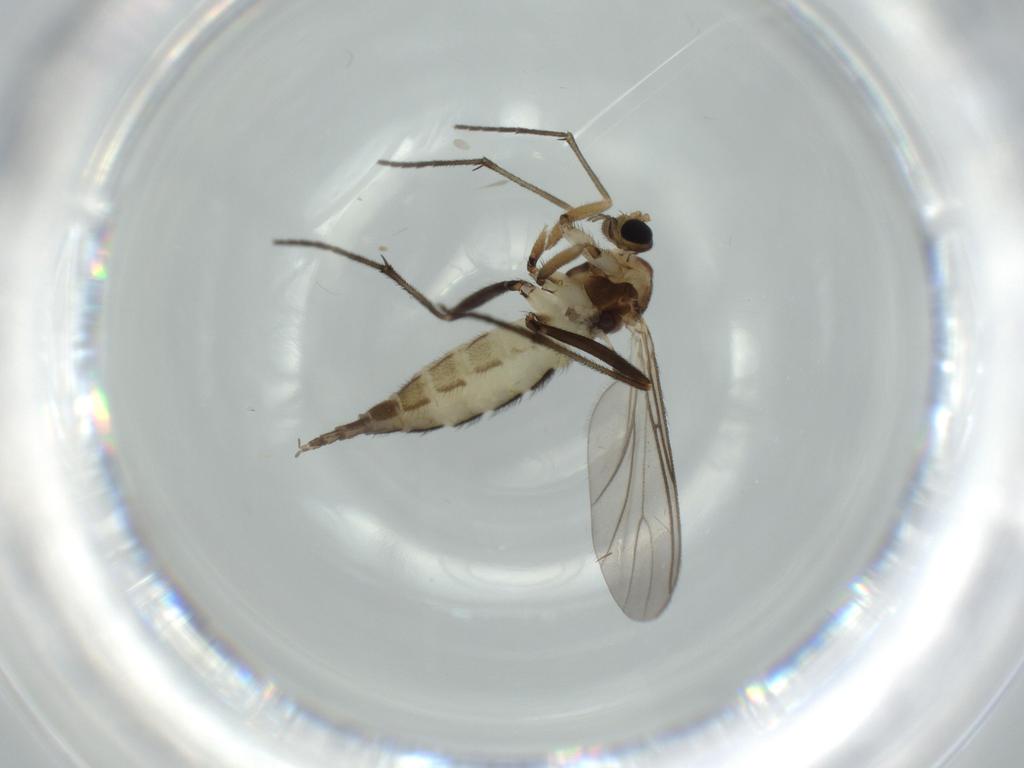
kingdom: Animalia
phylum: Arthropoda
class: Insecta
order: Diptera
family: Sciaridae
